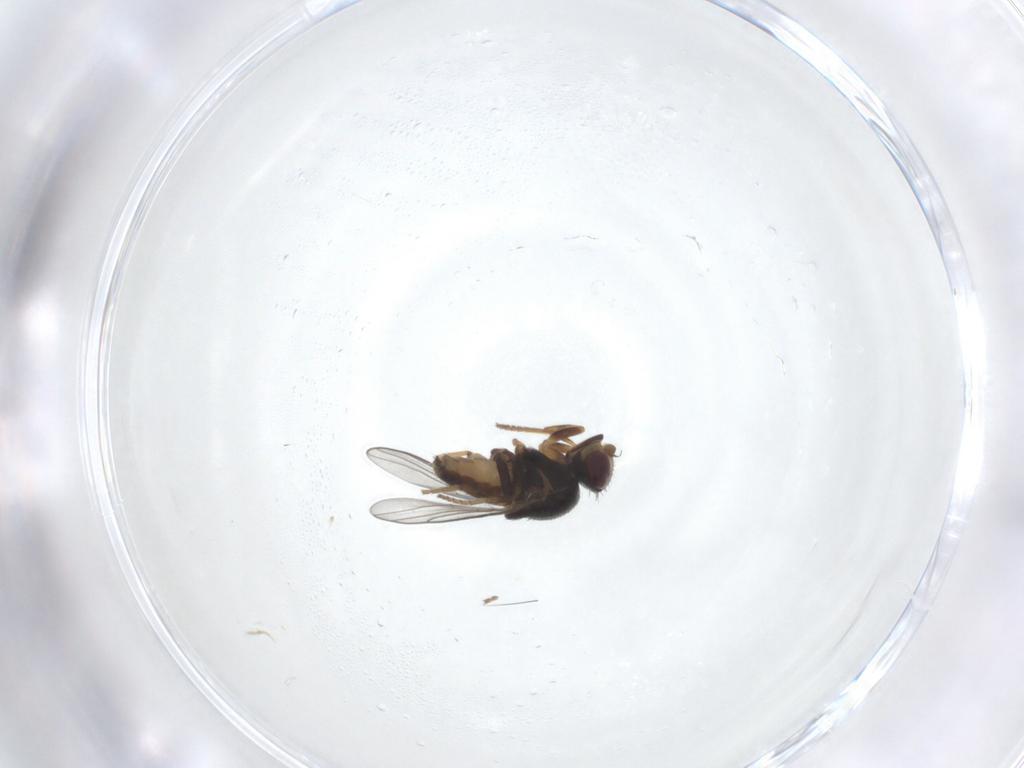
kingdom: Animalia
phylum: Arthropoda
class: Insecta
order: Diptera
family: Chloropidae
